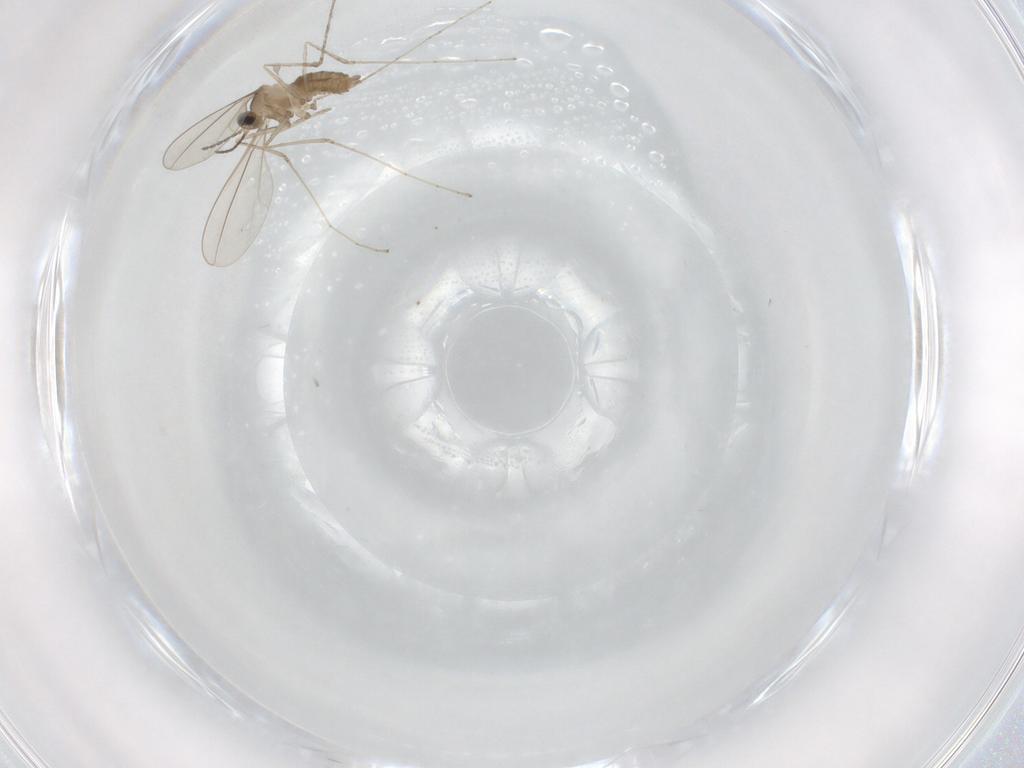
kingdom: Animalia
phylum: Arthropoda
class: Insecta
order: Diptera
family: Cecidomyiidae
